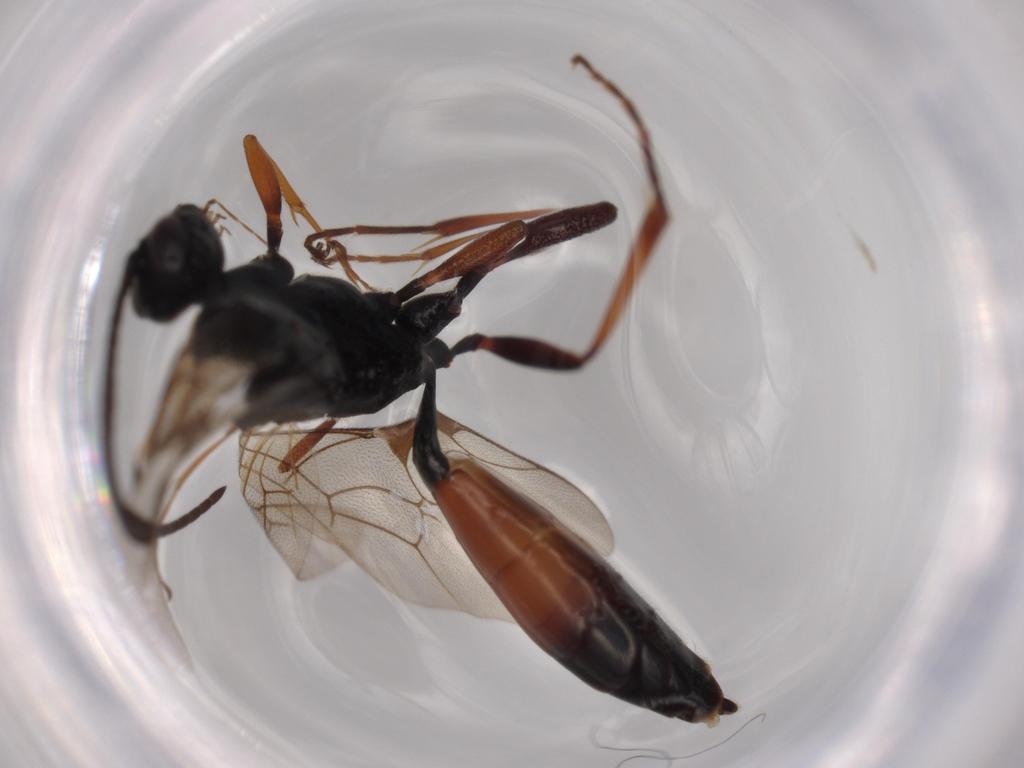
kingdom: Animalia
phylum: Arthropoda
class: Insecta
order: Hymenoptera
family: Ichneumonidae
